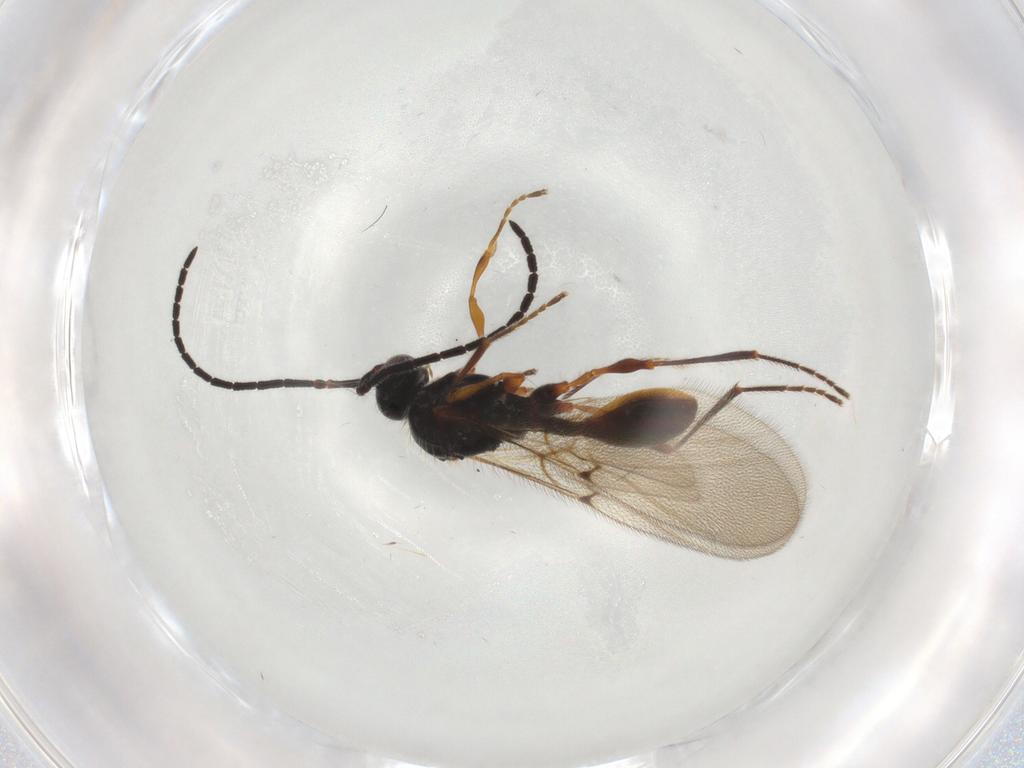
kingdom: Animalia
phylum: Arthropoda
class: Insecta
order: Hymenoptera
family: Diapriidae
